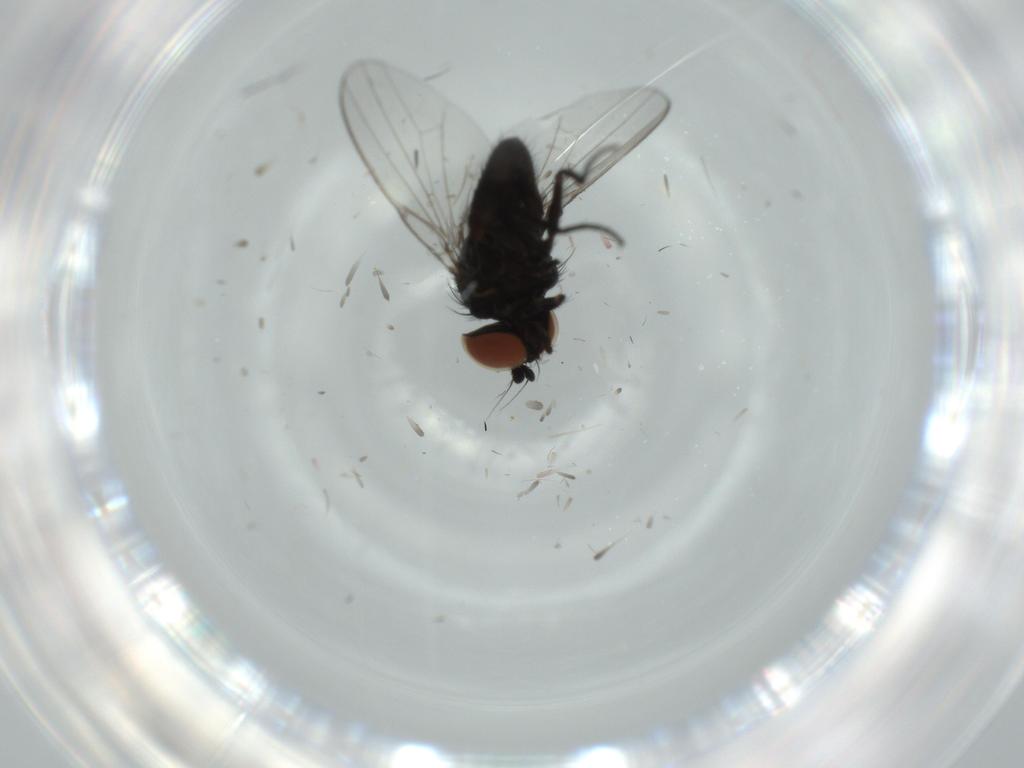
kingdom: Animalia
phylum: Arthropoda
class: Insecta
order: Diptera
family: Milichiidae
